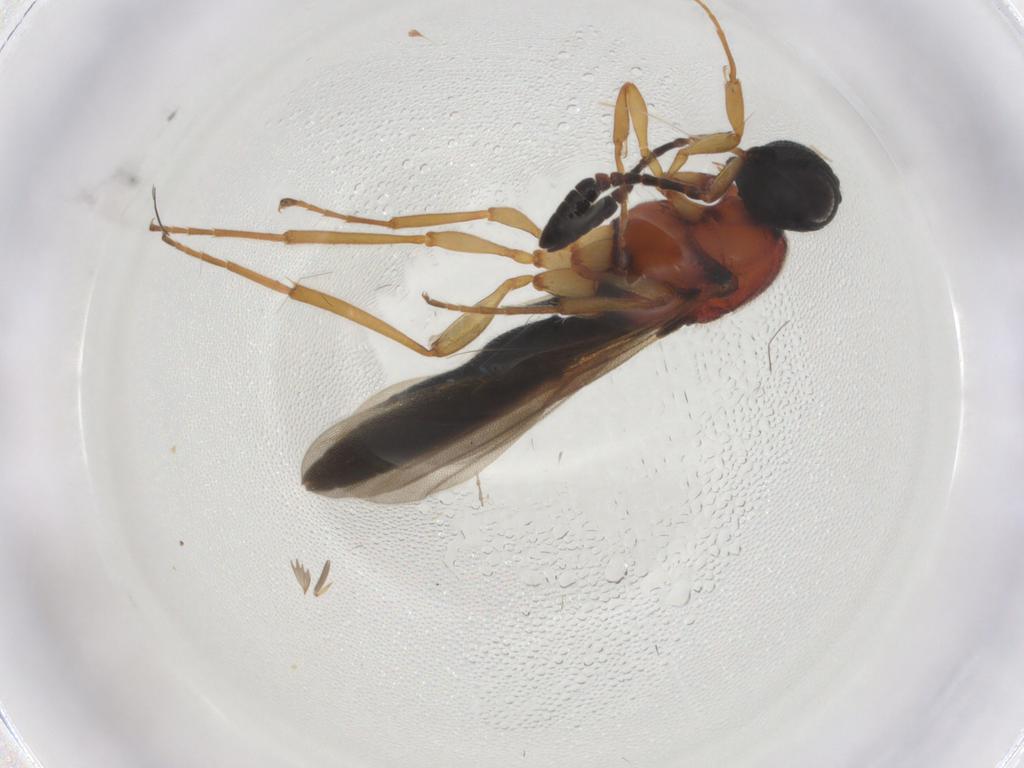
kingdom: Animalia
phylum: Arthropoda
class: Insecta
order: Hymenoptera
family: Scelionidae
